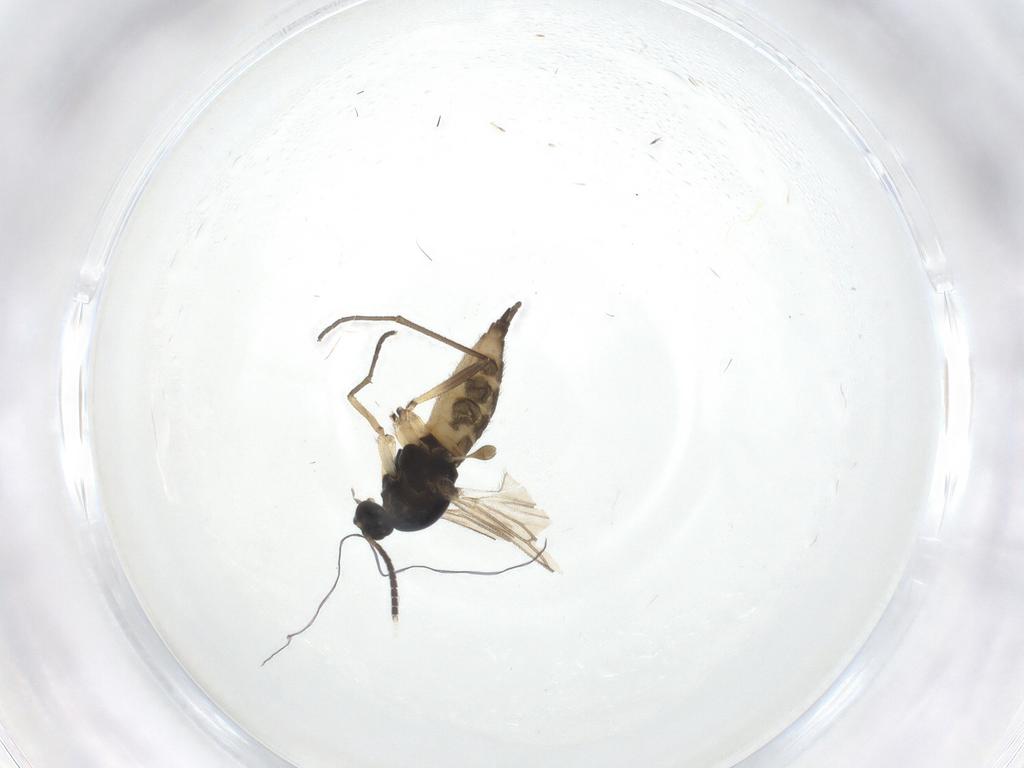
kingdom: Animalia
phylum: Arthropoda
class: Insecta
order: Diptera
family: Sciaridae
